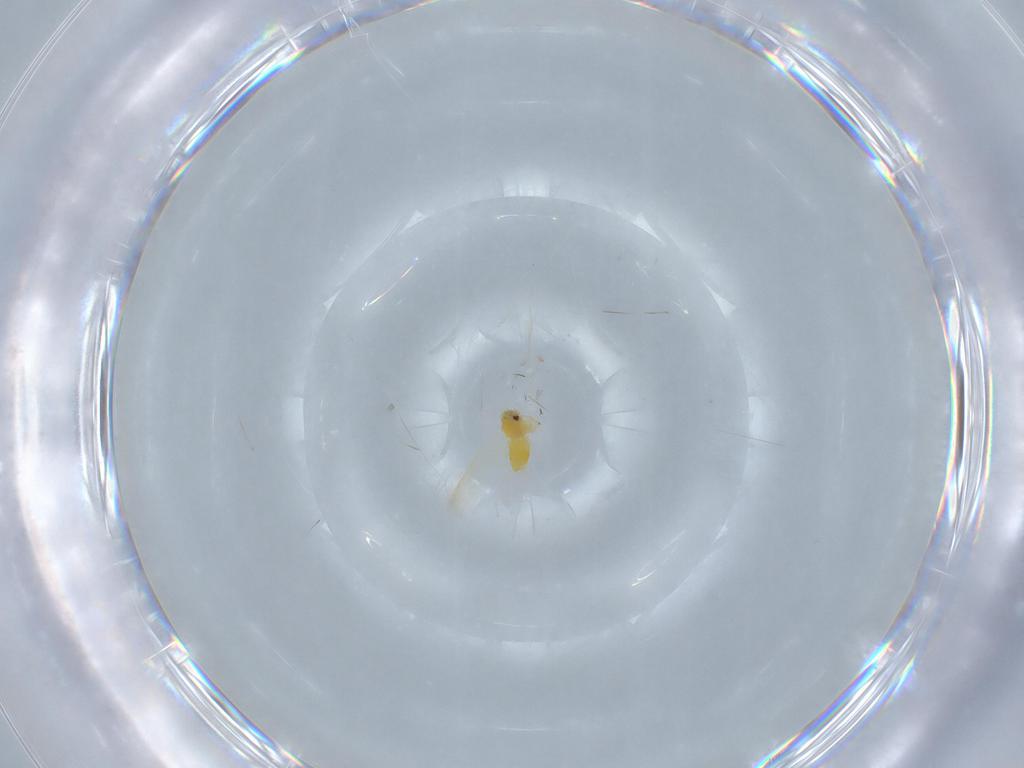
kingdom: Animalia
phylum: Arthropoda
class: Insecta
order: Hemiptera
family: Aleyrodidae
